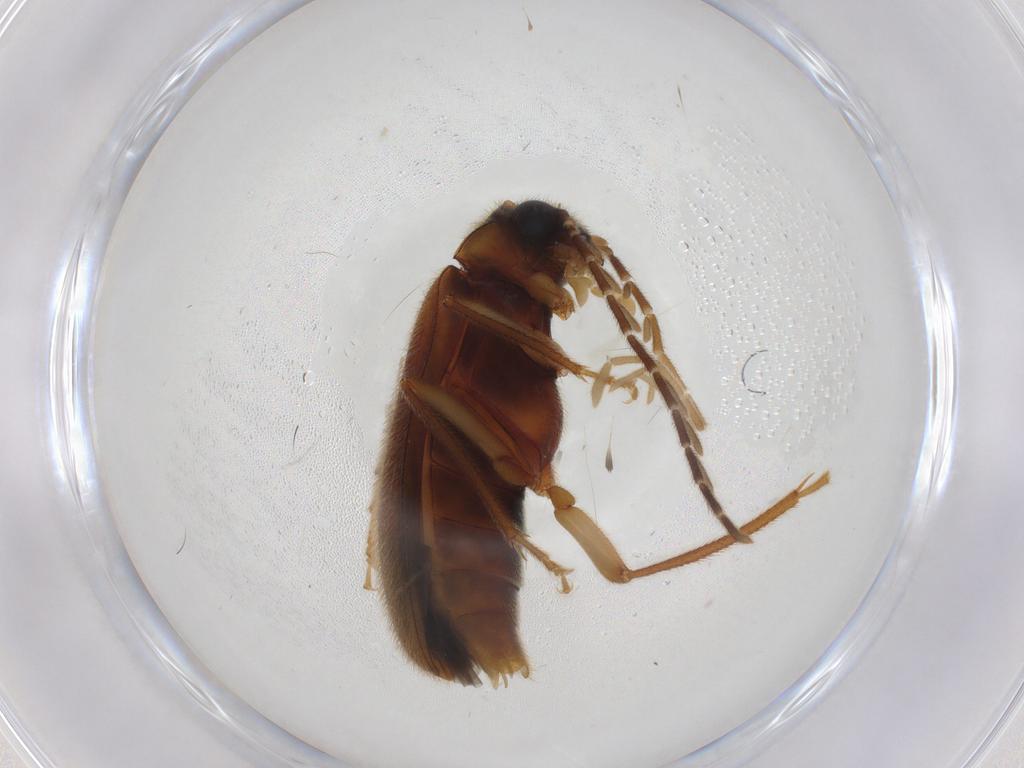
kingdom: Animalia
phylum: Arthropoda
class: Insecta
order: Coleoptera
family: Ptilodactylidae
